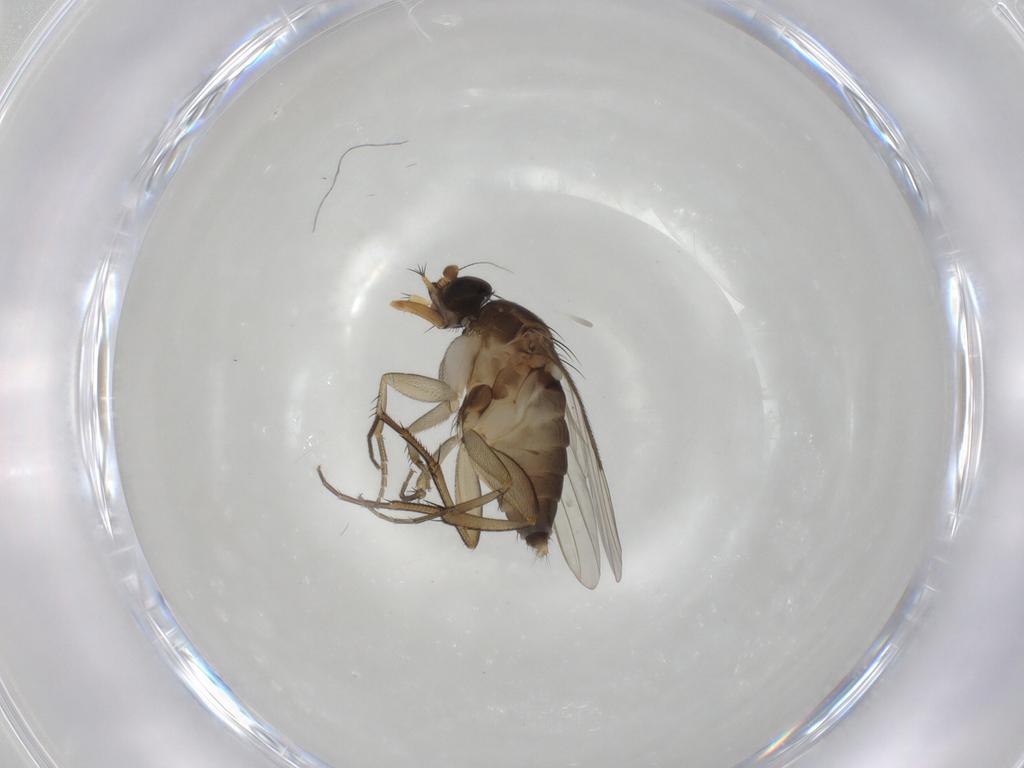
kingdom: Animalia
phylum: Arthropoda
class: Insecta
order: Diptera
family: Phoridae
